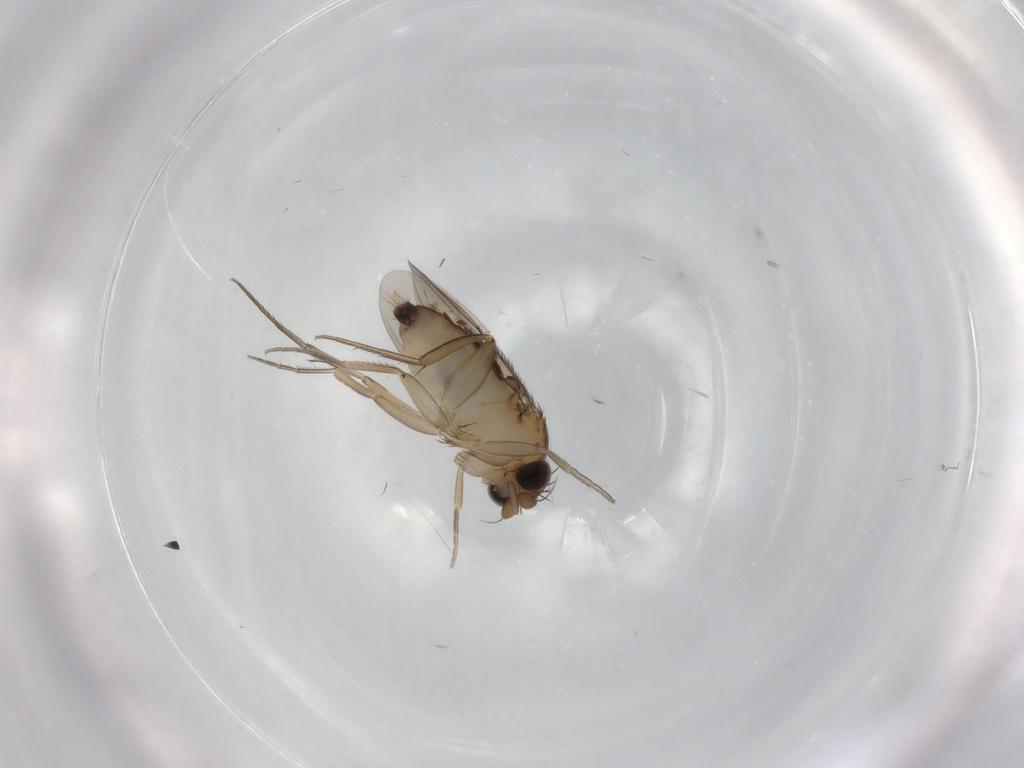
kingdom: Animalia
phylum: Arthropoda
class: Insecta
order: Diptera
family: Phoridae
